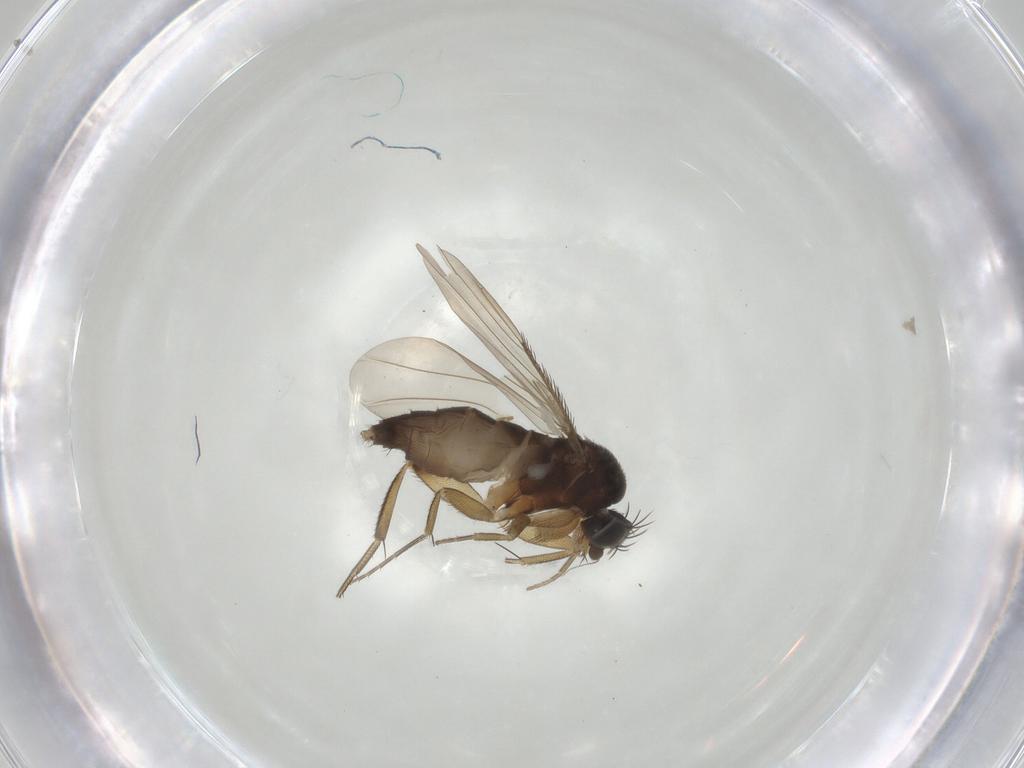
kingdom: Animalia
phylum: Arthropoda
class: Insecta
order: Diptera
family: Phoridae
